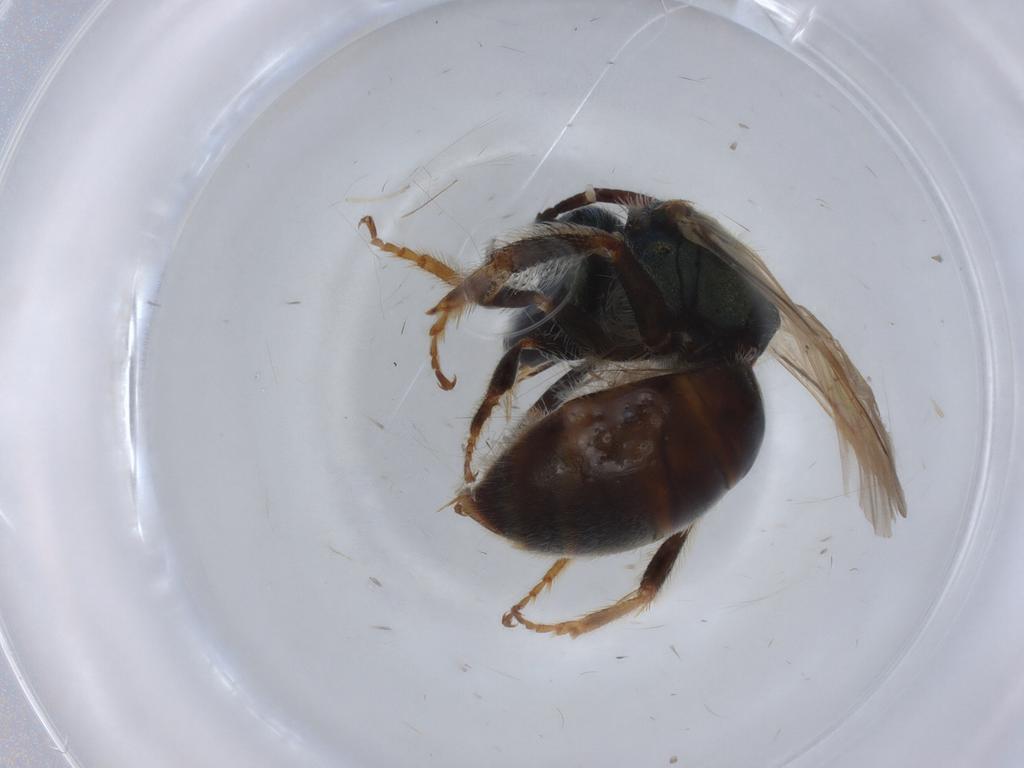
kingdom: Animalia
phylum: Arthropoda
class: Insecta
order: Hymenoptera
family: Halictidae
